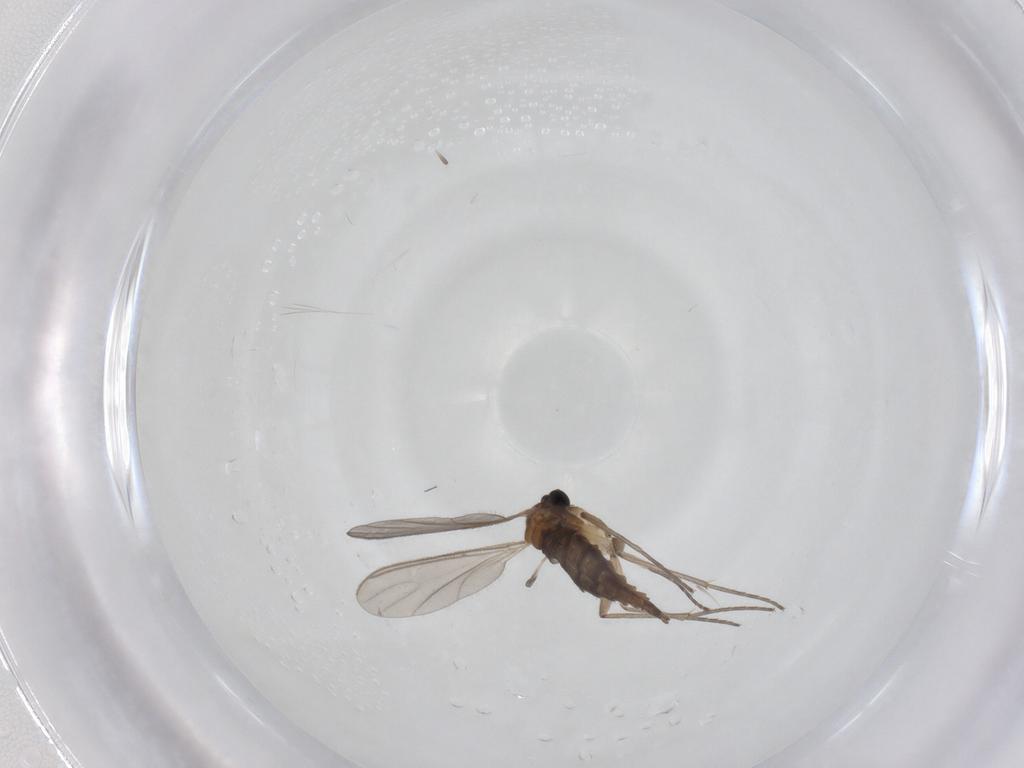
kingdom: Animalia
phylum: Arthropoda
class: Insecta
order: Diptera
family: Sciaridae
